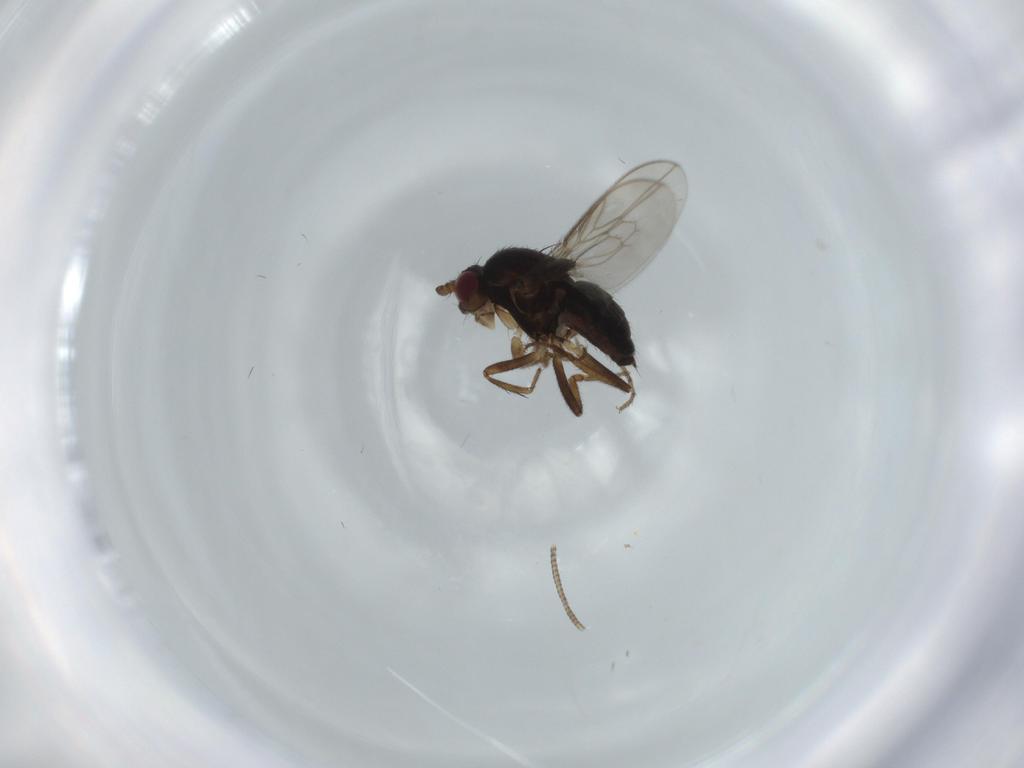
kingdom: Animalia
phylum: Arthropoda
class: Insecta
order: Diptera
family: Sphaeroceridae
